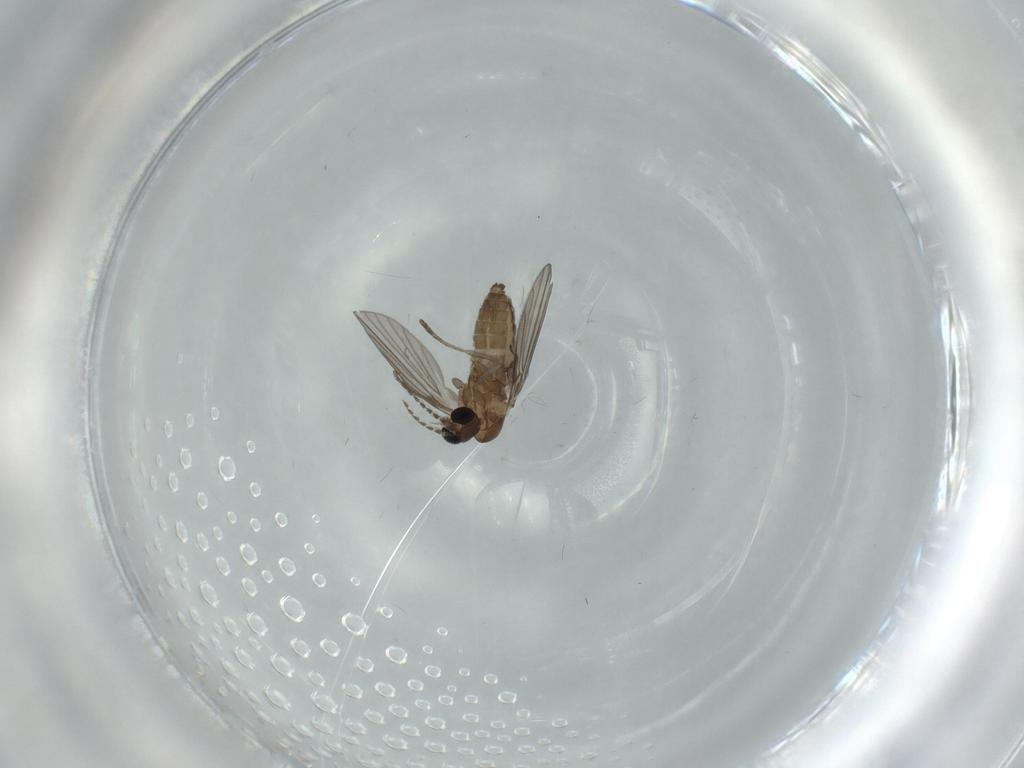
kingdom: Animalia
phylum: Arthropoda
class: Insecta
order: Diptera
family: Psychodidae
